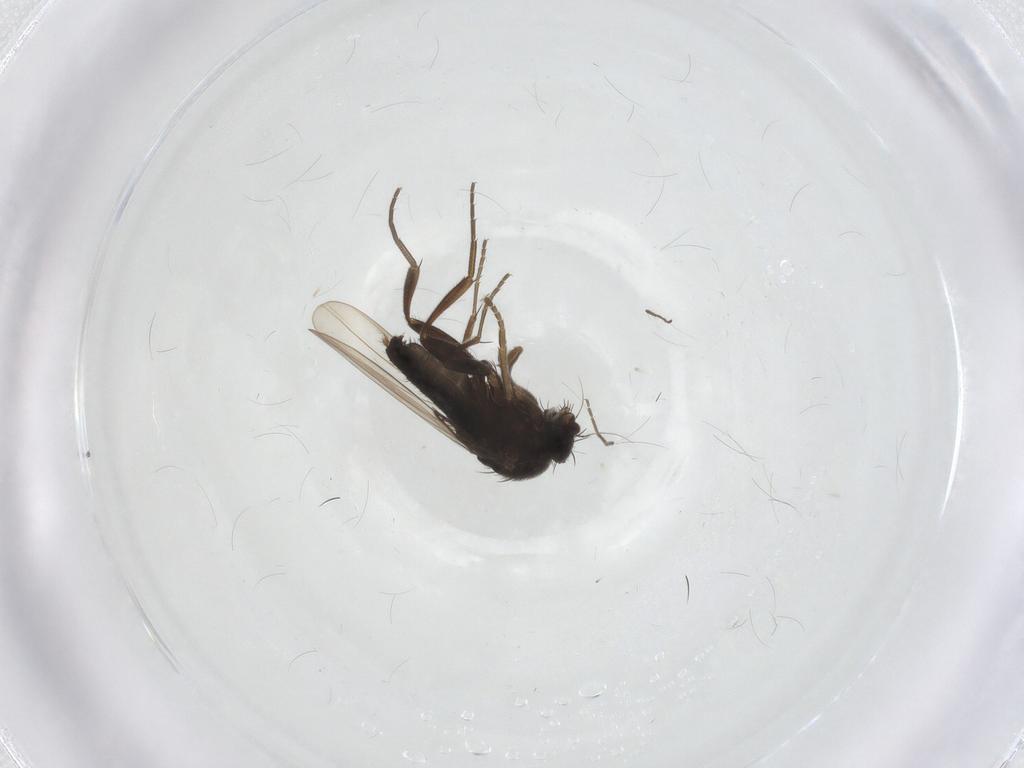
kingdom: Animalia
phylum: Arthropoda
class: Insecta
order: Diptera
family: Phoridae
